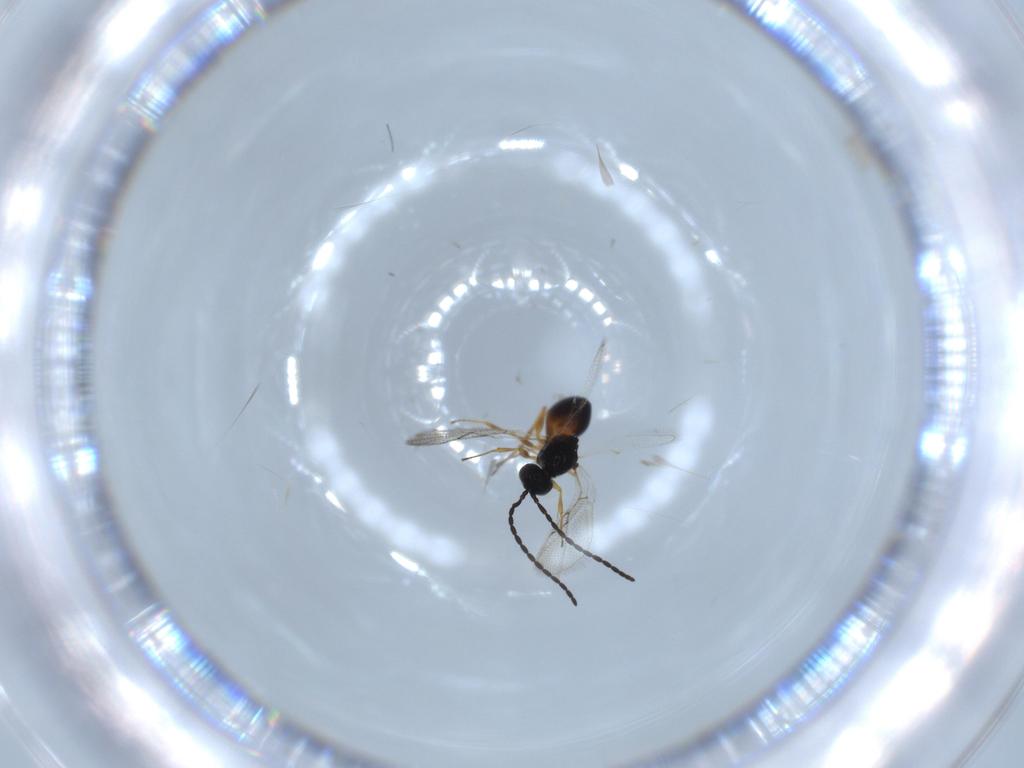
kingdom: Animalia
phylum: Arthropoda
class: Insecta
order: Hymenoptera
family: Figitidae
